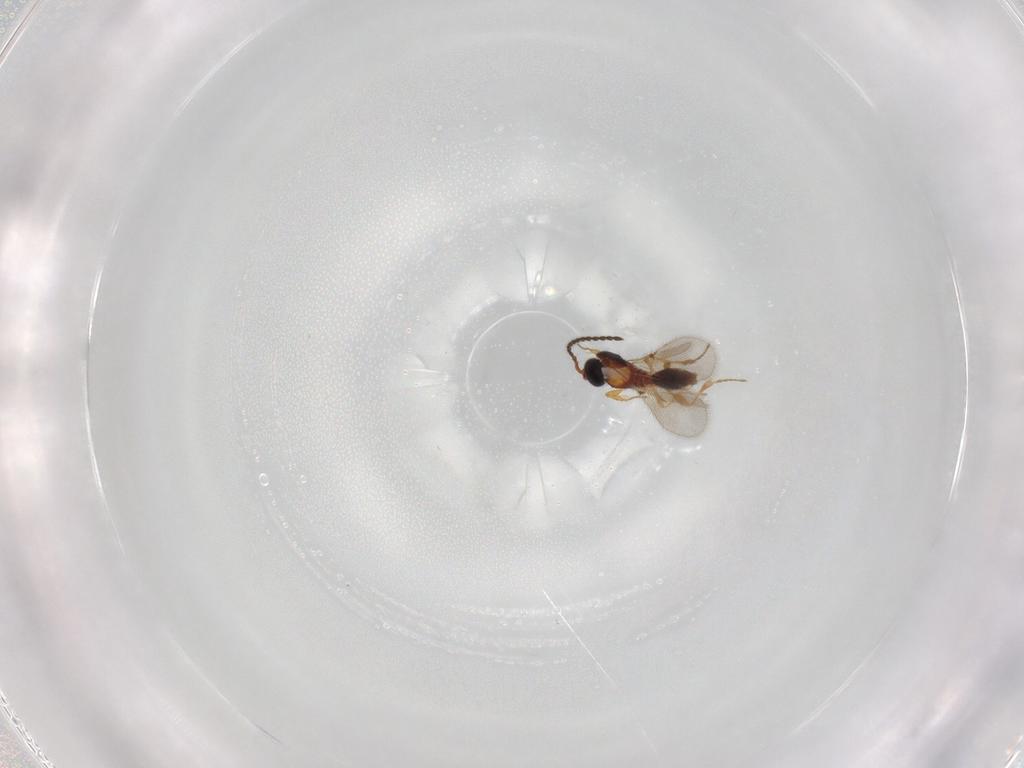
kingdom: Animalia
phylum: Arthropoda
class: Insecta
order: Hymenoptera
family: Diapriidae
